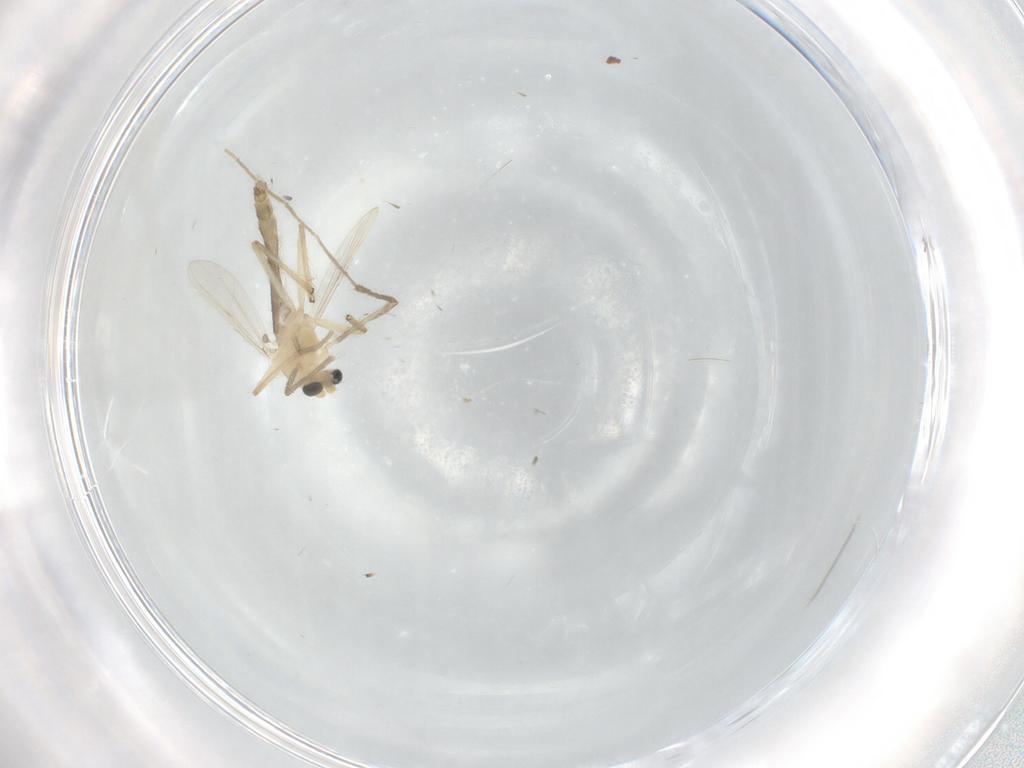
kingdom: Animalia
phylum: Arthropoda
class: Insecta
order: Diptera
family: Chironomidae
